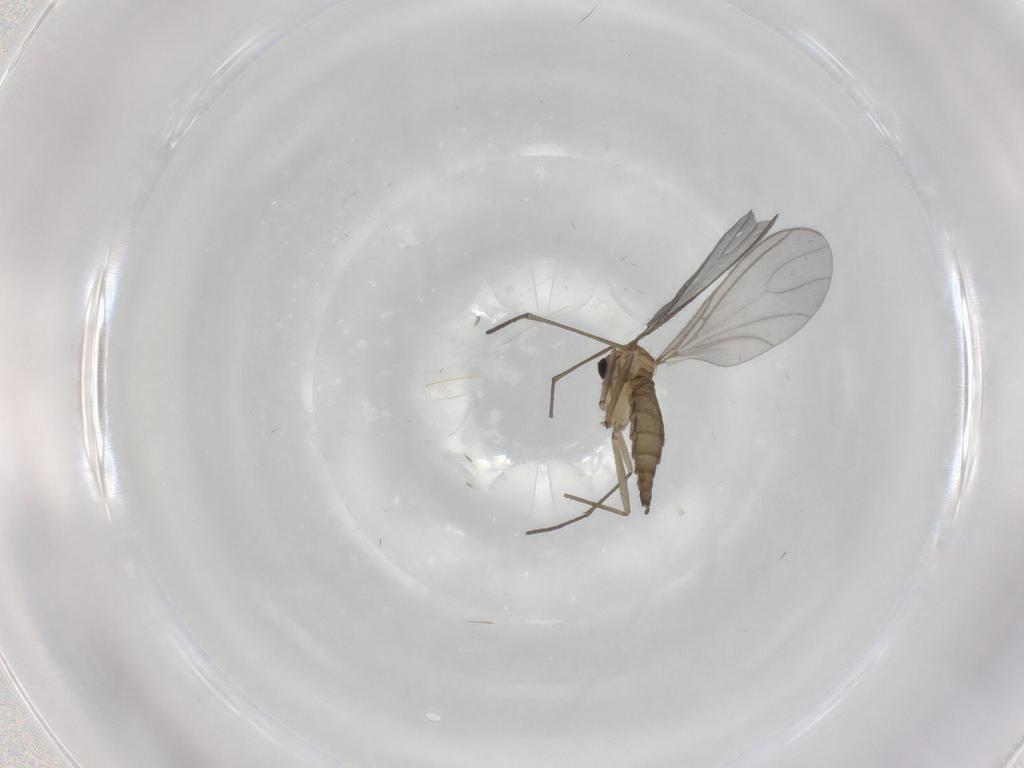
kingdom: Animalia
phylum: Arthropoda
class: Insecta
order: Diptera
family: Sciaridae
